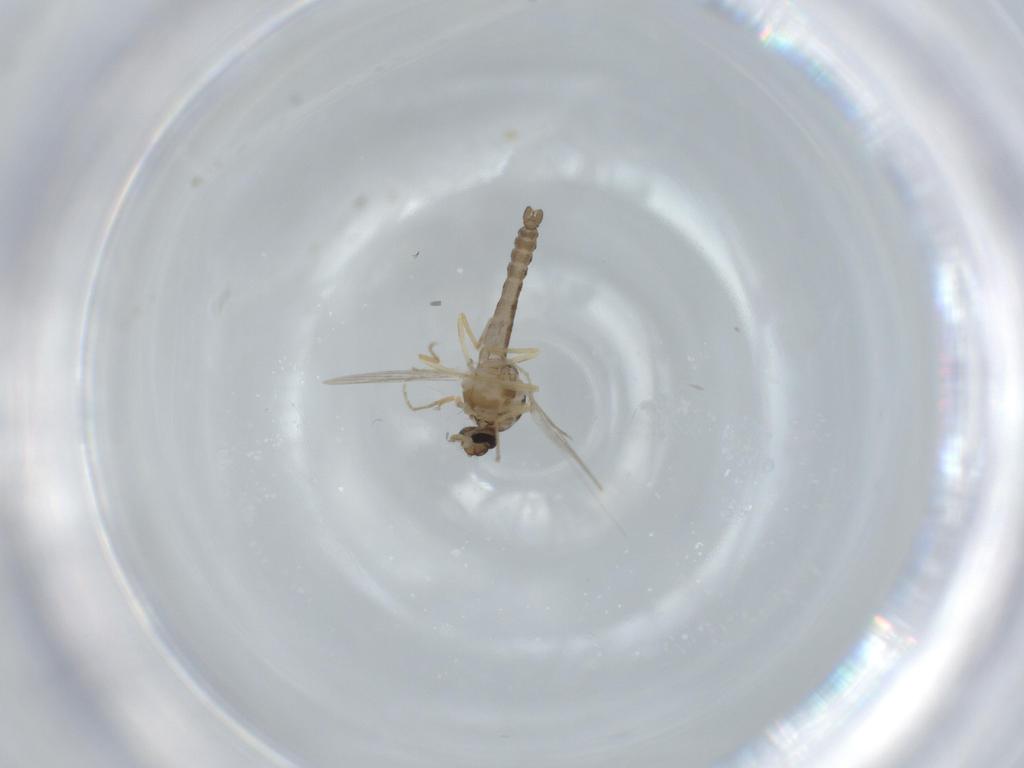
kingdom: Animalia
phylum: Arthropoda
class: Insecta
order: Diptera
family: Ceratopogonidae
